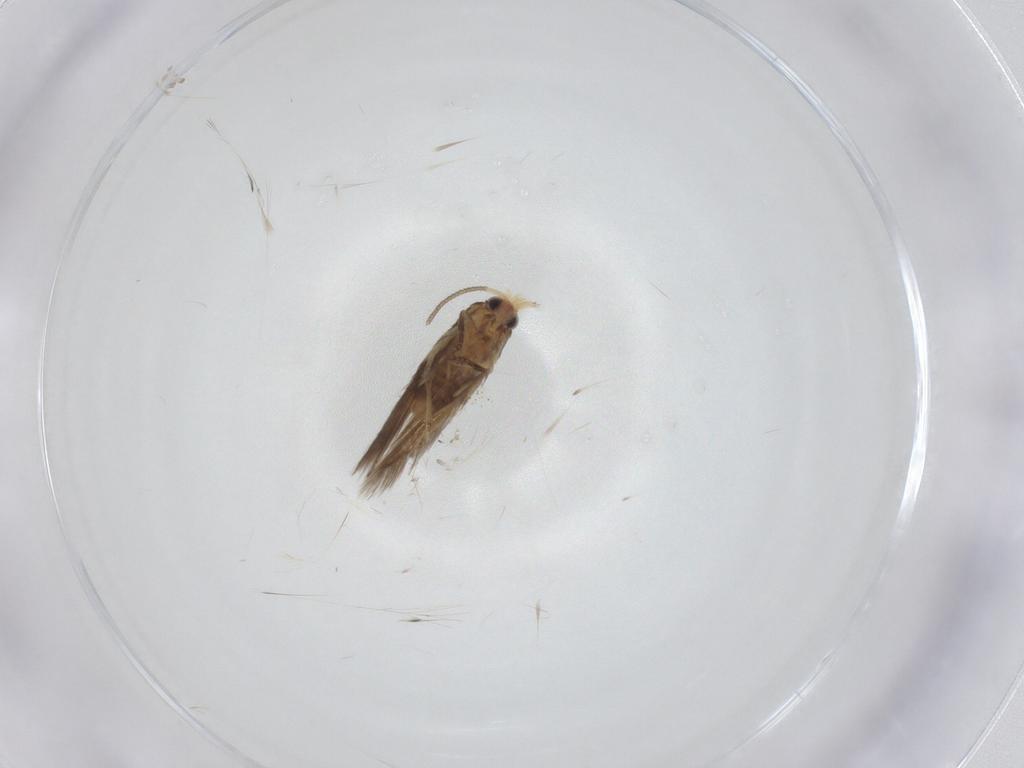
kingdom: Animalia
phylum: Arthropoda
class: Insecta
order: Lepidoptera
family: Nepticulidae
